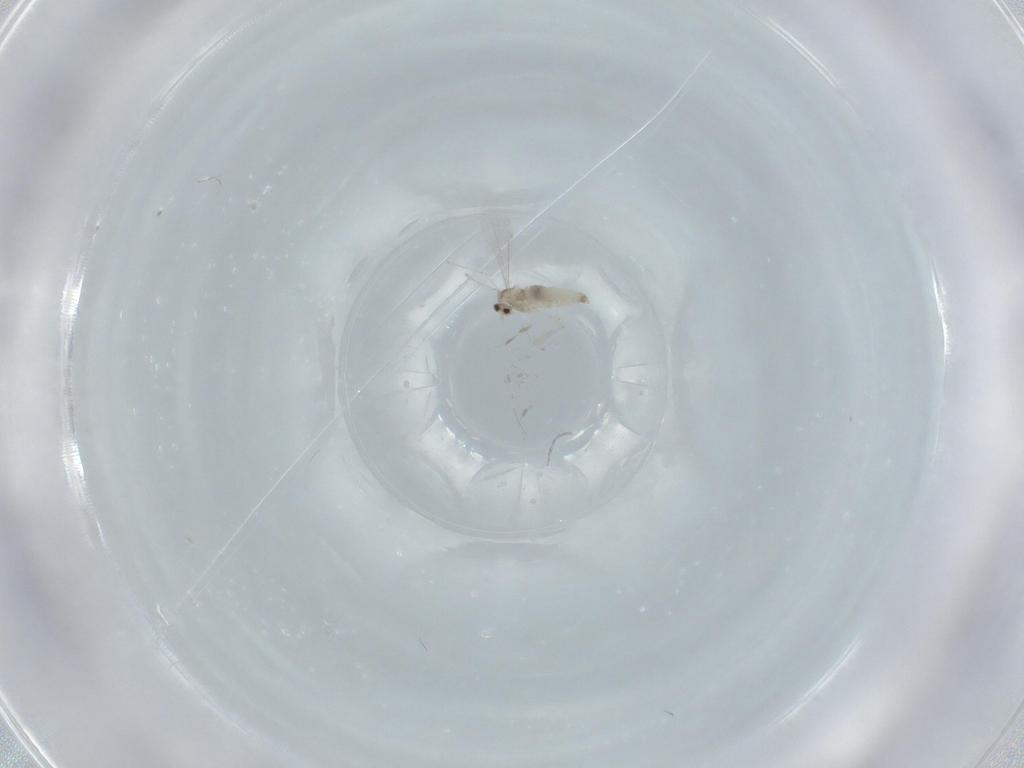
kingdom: Animalia
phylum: Arthropoda
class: Insecta
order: Diptera
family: Cecidomyiidae
